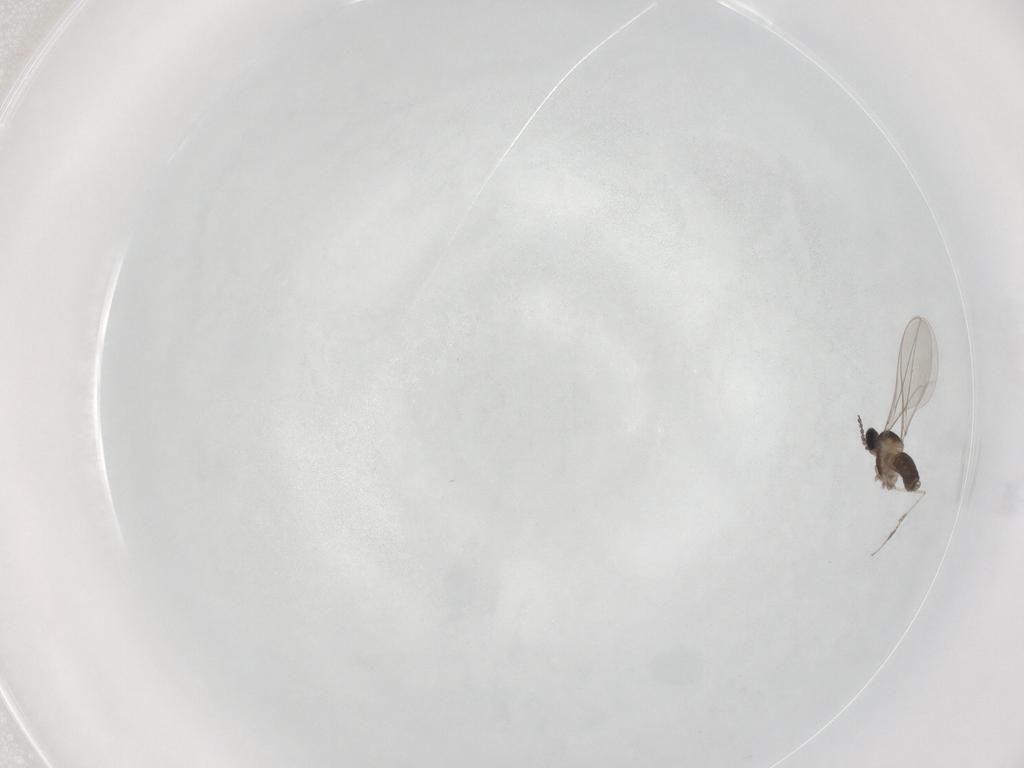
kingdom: Animalia
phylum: Arthropoda
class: Insecta
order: Diptera
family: Cecidomyiidae
